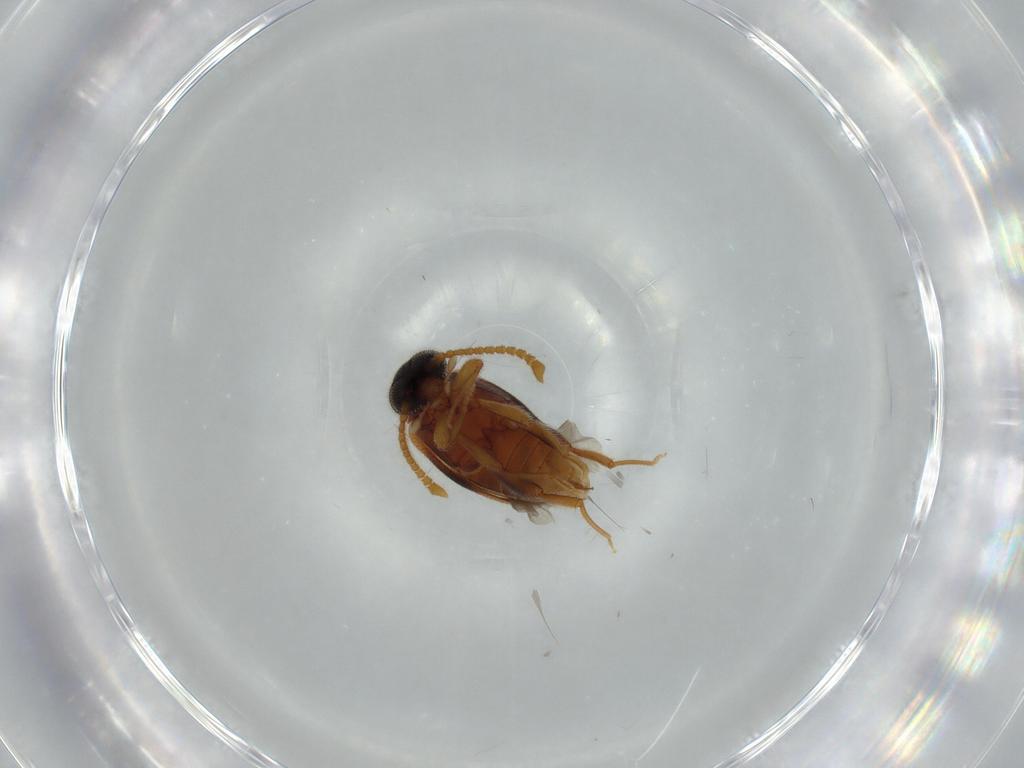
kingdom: Animalia
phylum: Arthropoda
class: Insecta
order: Coleoptera
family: Aderidae
